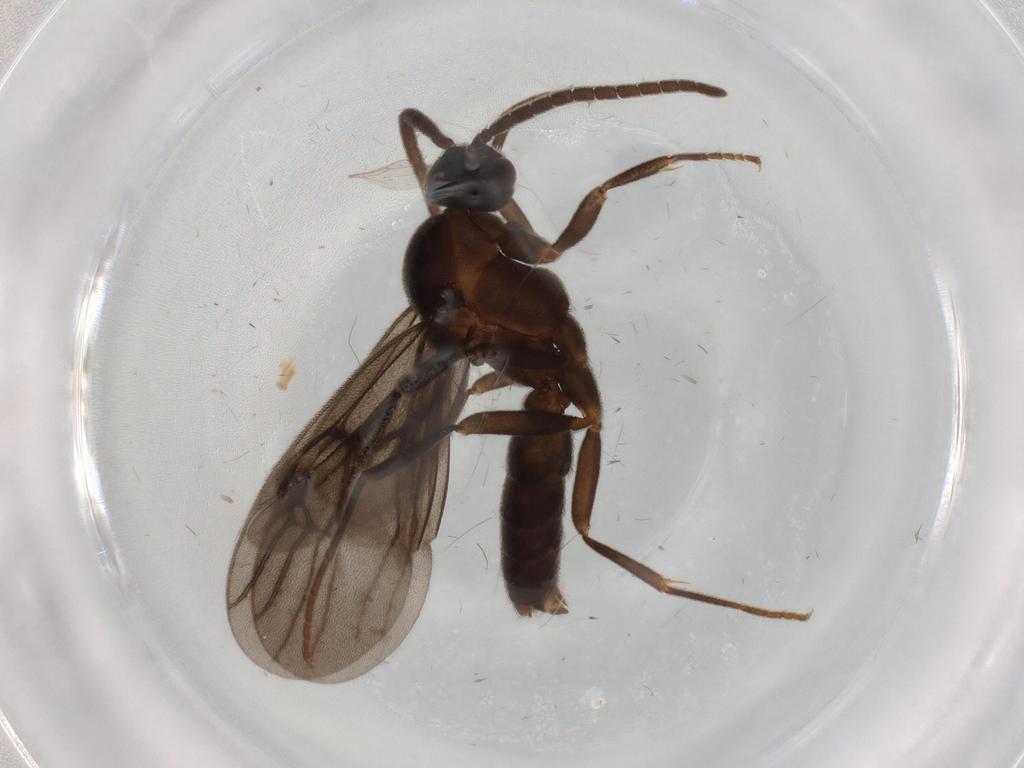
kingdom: Animalia
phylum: Arthropoda
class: Insecta
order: Hymenoptera
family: Formicidae
